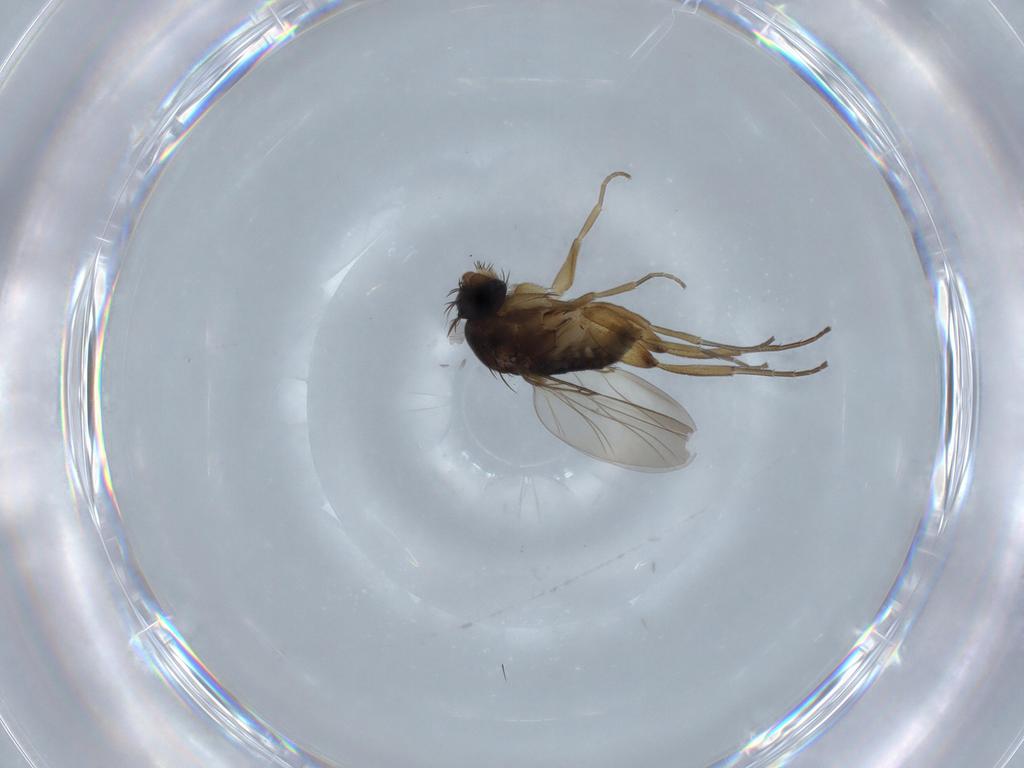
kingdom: Animalia
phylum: Arthropoda
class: Insecta
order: Diptera
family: Phoridae
